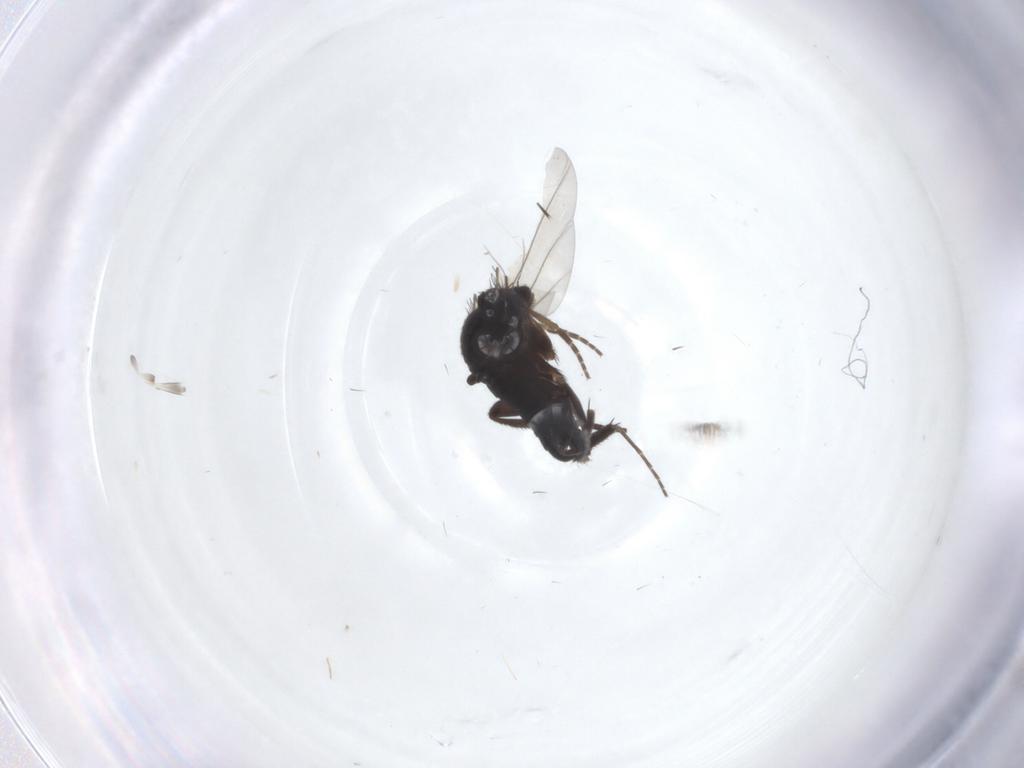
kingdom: Animalia
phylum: Arthropoda
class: Insecta
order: Diptera
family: Phoridae
